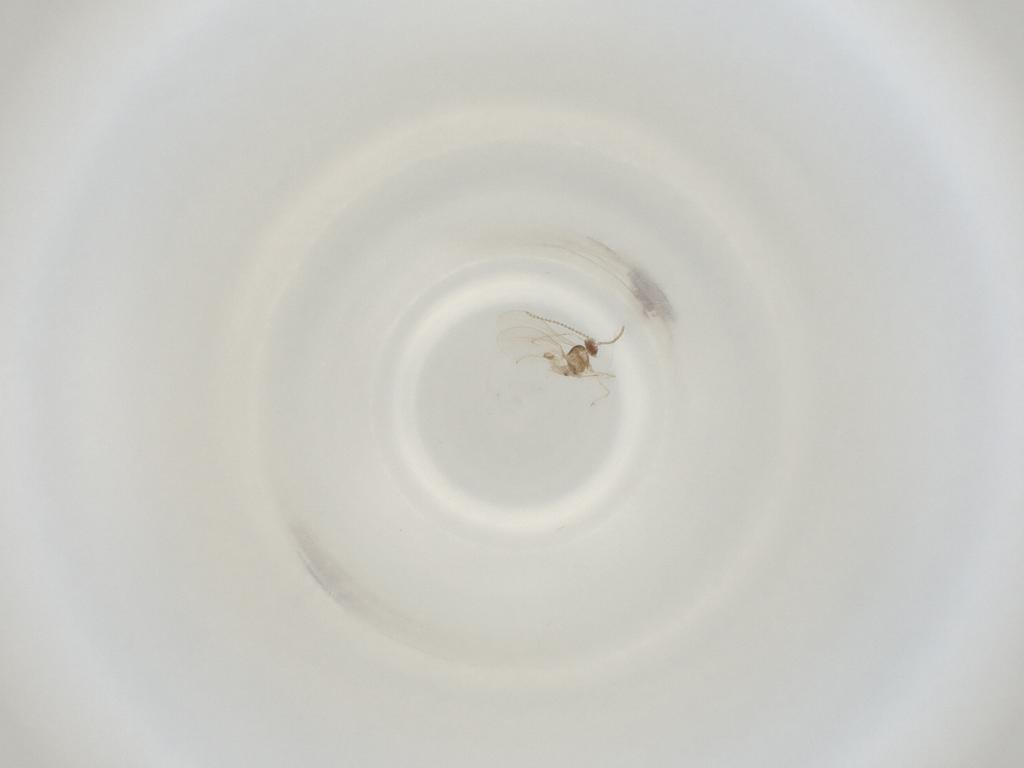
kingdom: Animalia
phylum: Arthropoda
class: Insecta
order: Diptera
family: Cecidomyiidae
